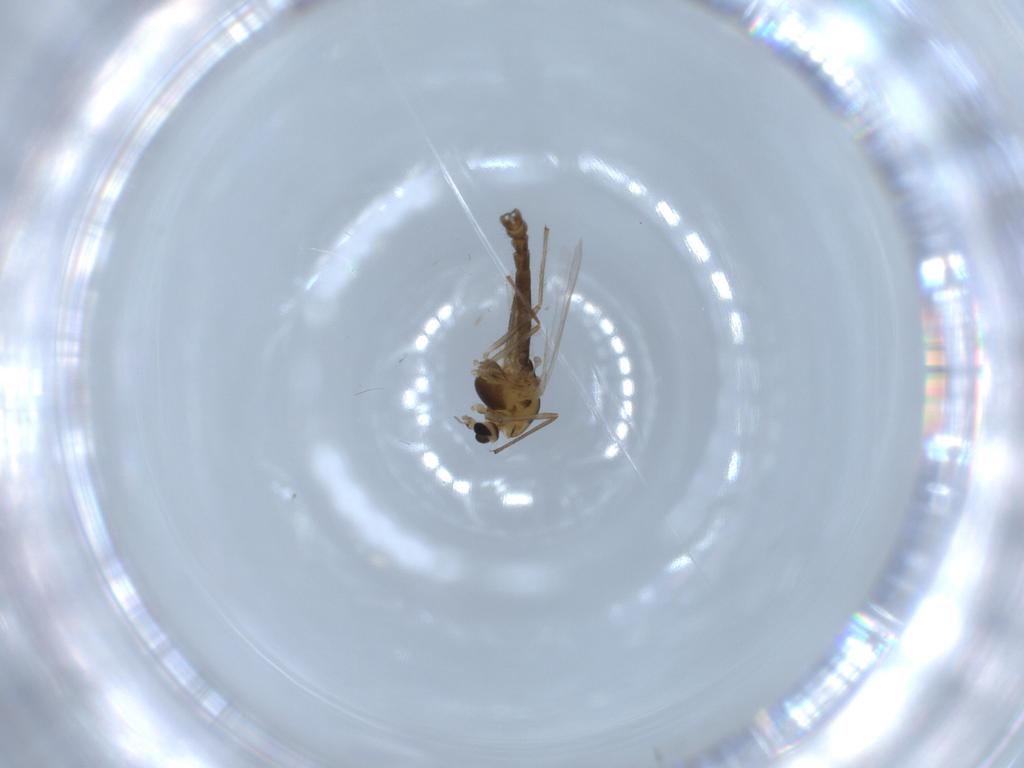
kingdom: Animalia
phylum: Arthropoda
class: Insecta
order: Diptera
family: Chironomidae
